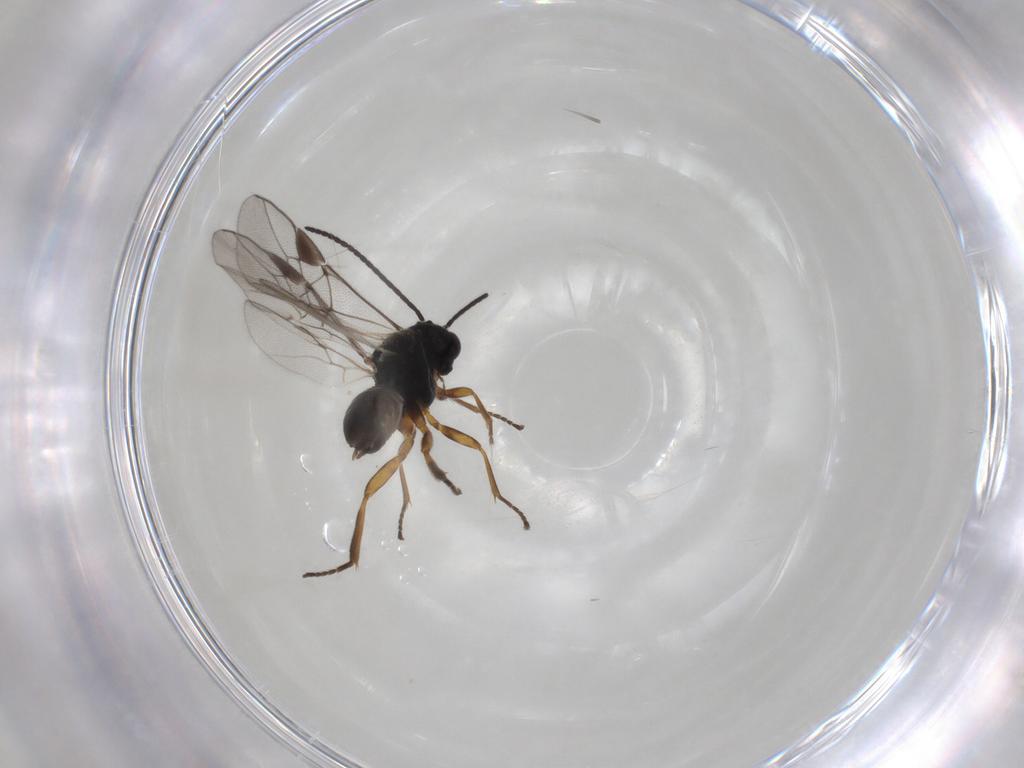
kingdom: Animalia
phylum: Arthropoda
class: Insecta
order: Hymenoptera
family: Braconidae
